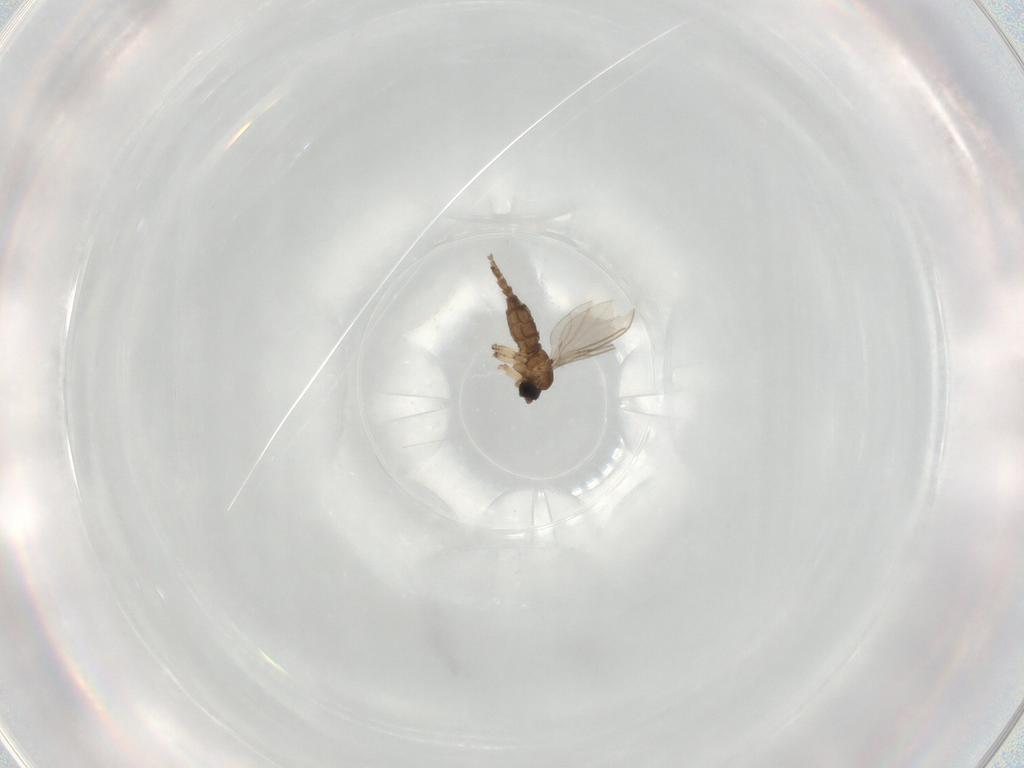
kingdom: Animalia
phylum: Arthropoda
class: Insecta
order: Diptera
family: Sciaridae
